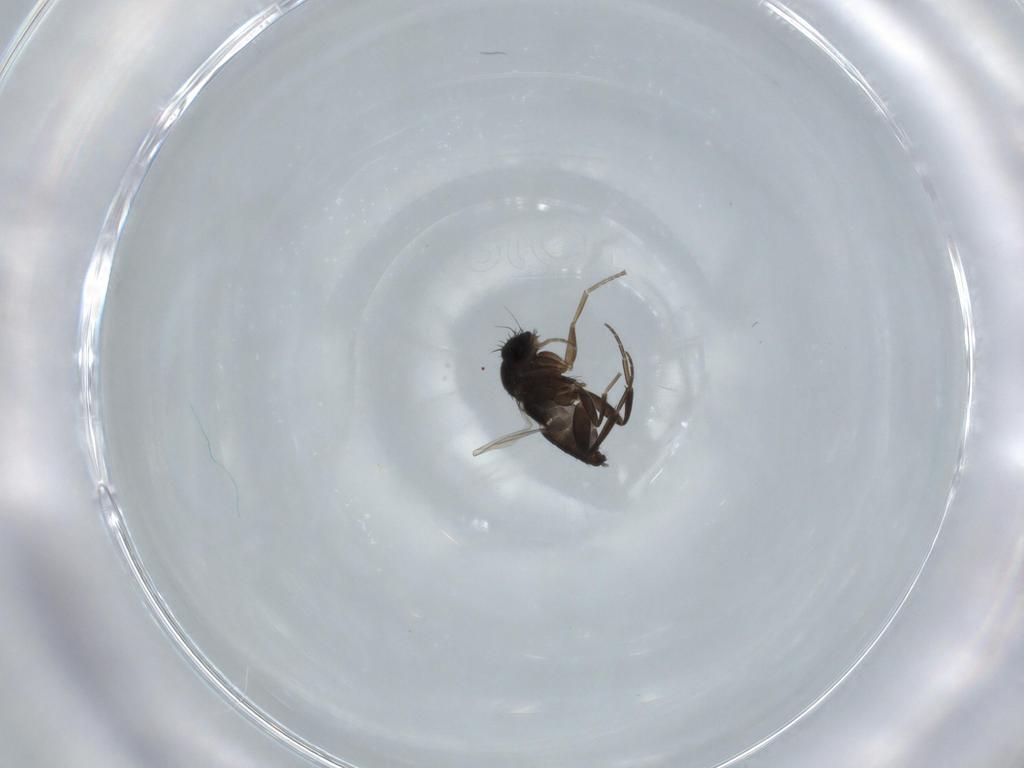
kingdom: Animalia
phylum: Arthropoda
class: Insecta
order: Diptera
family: Phoridae
